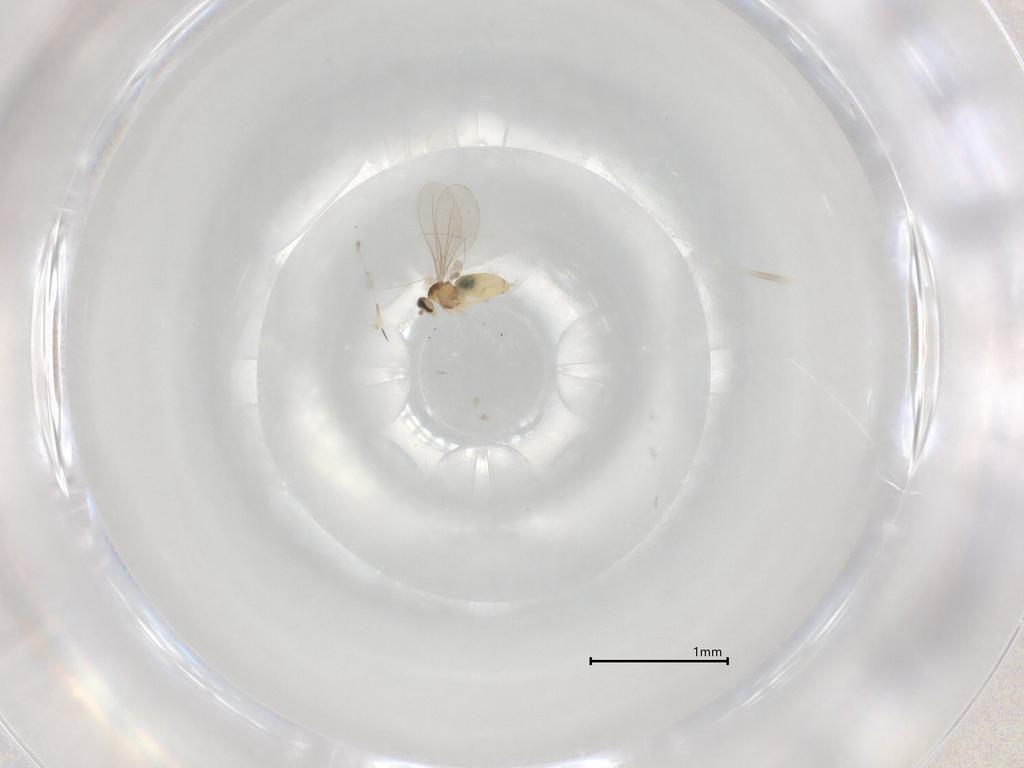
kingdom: Animalia
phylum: Arthropoda
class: Insecta
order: Diptera
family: Cecidomyiidae
